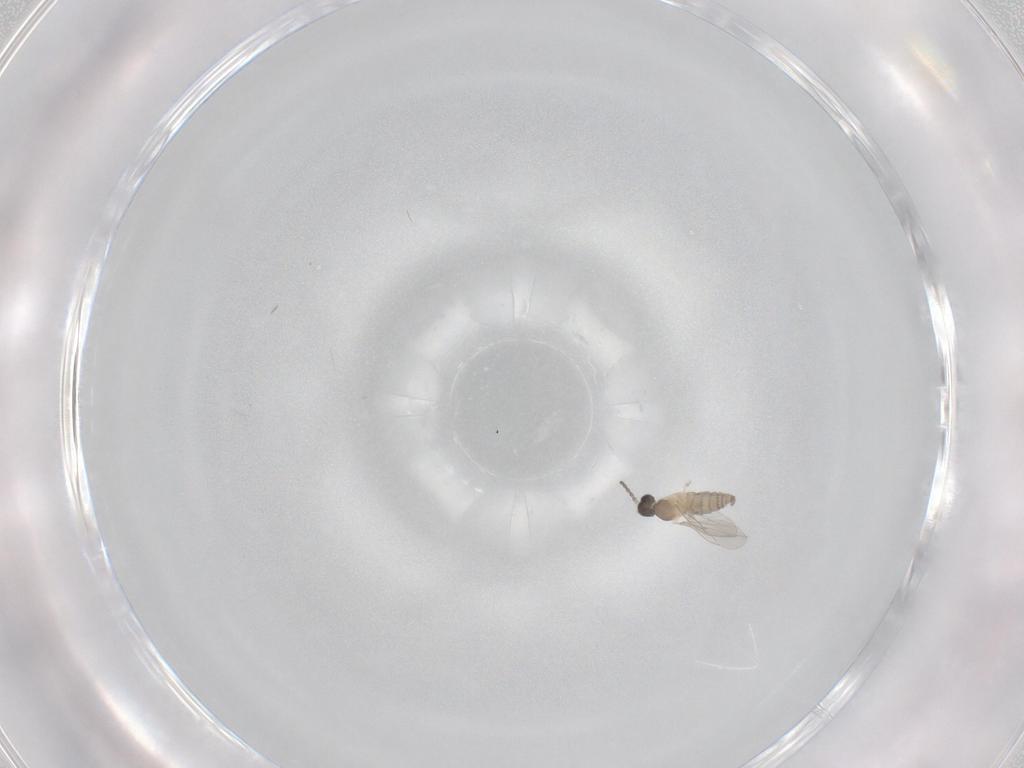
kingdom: Animalia
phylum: Arthropoda
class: Insecta
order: Diptera
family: Cecidomyiidae
